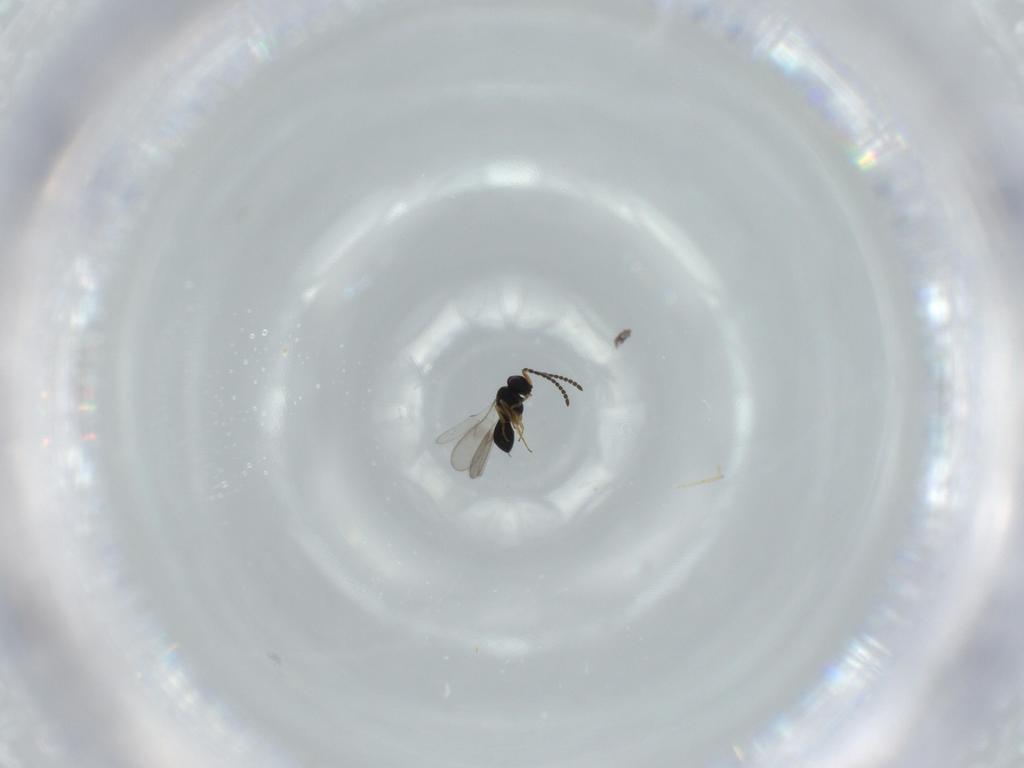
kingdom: Animalia
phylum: Arthropoda
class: Insecta
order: Hymenoptera
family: Scelionidae
